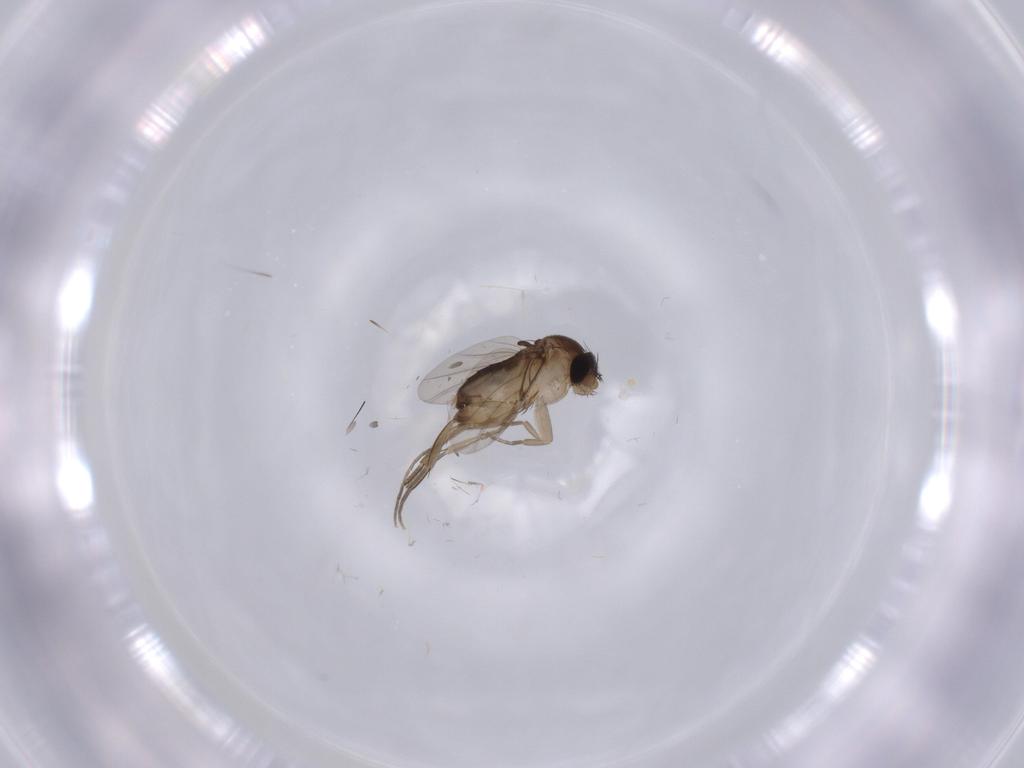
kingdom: Animalia
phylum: Arthropoda
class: Insecta
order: Diptera
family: Phoridae
